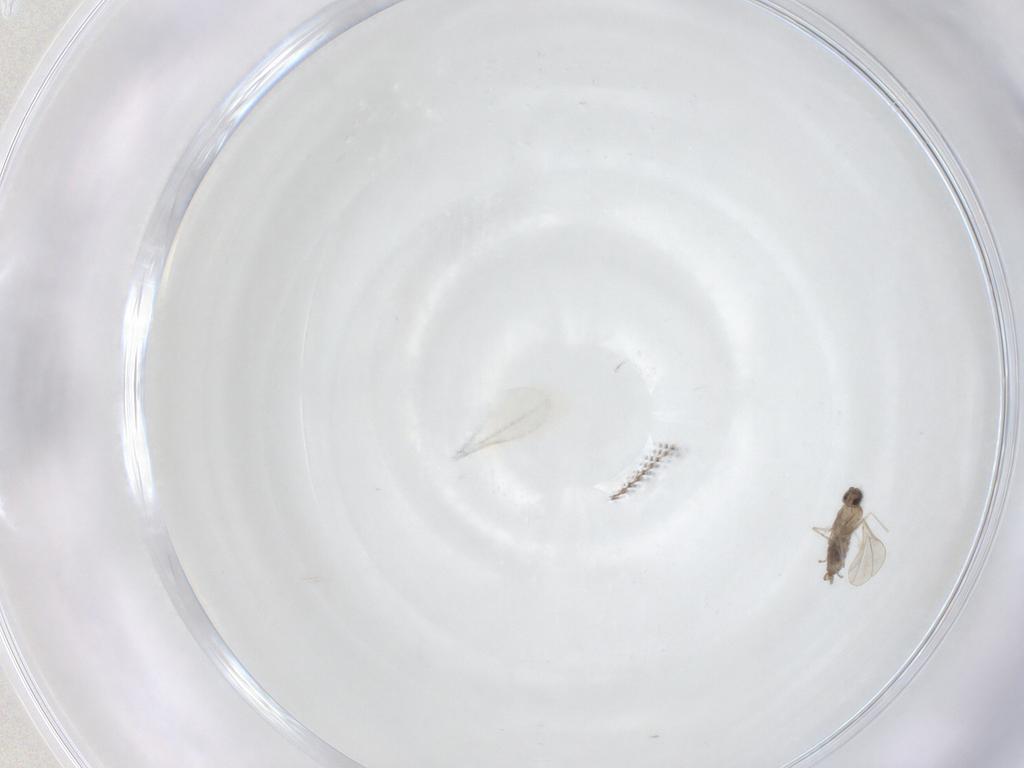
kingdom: Animalia
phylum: Arthropoda
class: Insecta
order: Diptera
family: Cecidomyiidae
